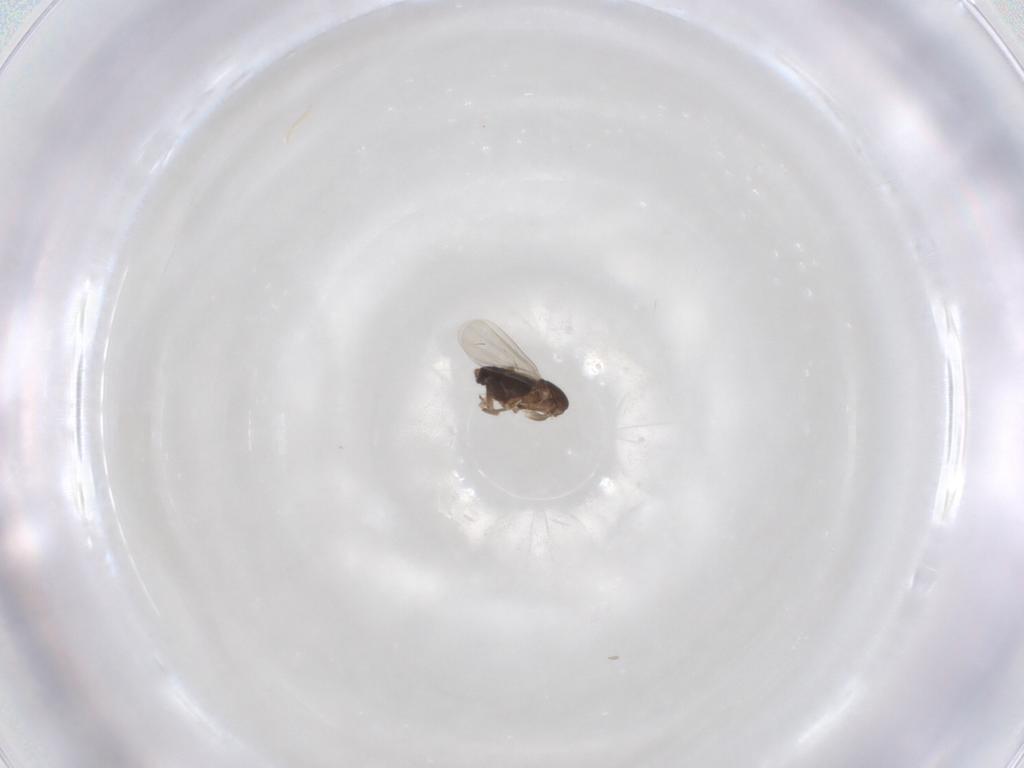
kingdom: Animalia
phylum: Arthropoda
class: Insecta
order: Diptera
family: Phoridae
